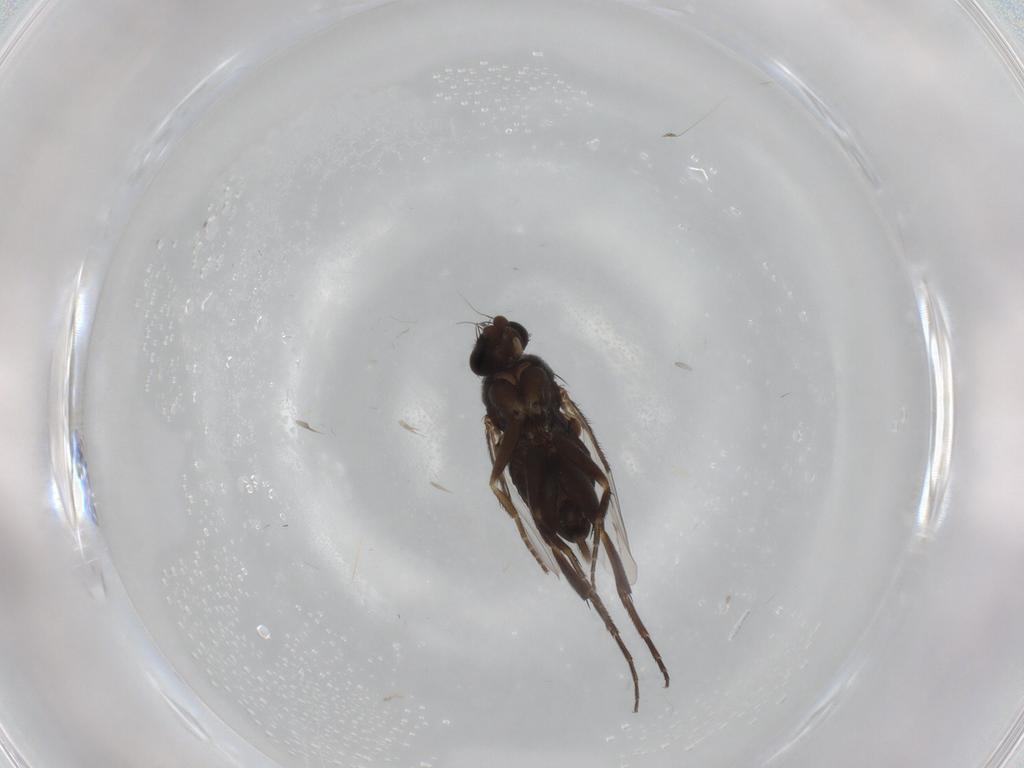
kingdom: Animalia
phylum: Arthropoda
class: Insecta
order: Diptera
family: Phoridae
